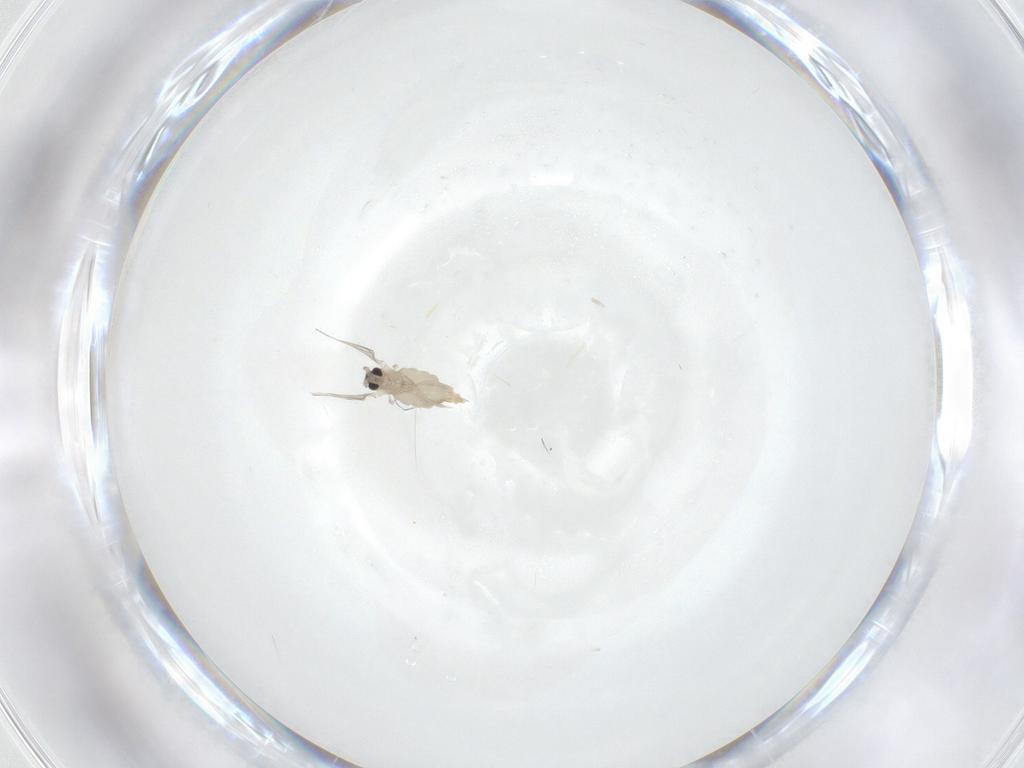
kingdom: Animalia
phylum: Arthropoda
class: Insecta
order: Diptera
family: Cecidomyiidae
